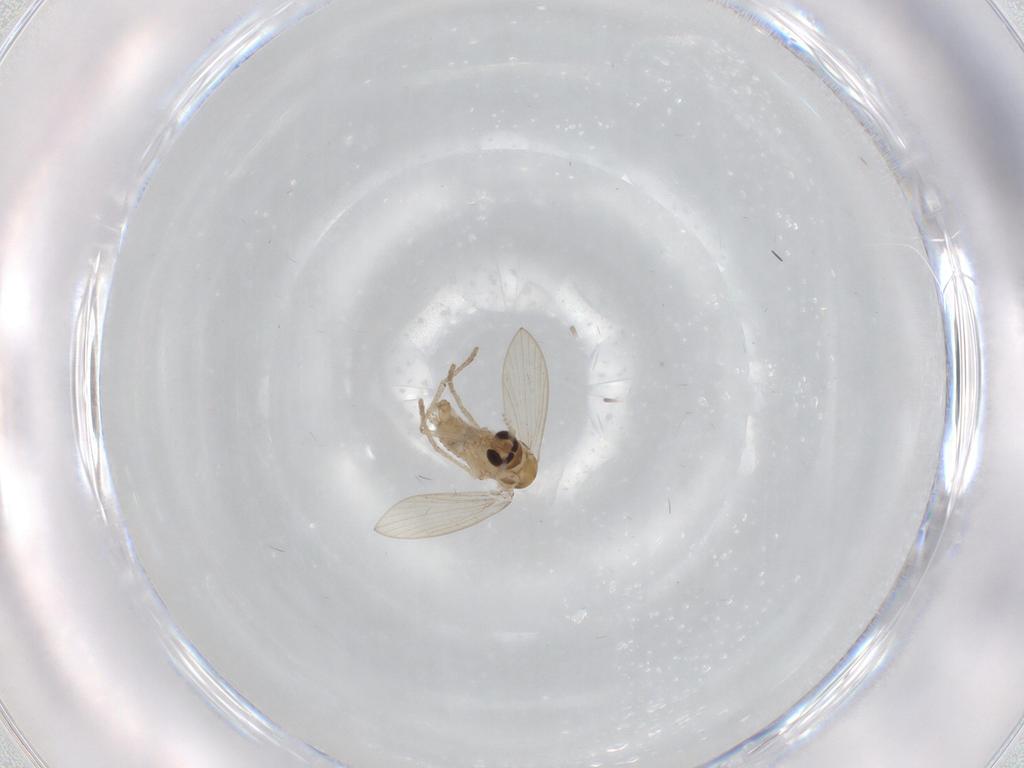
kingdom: Animalia
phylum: Arthropoda
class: Insecta
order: Diptera
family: Psychodidae
